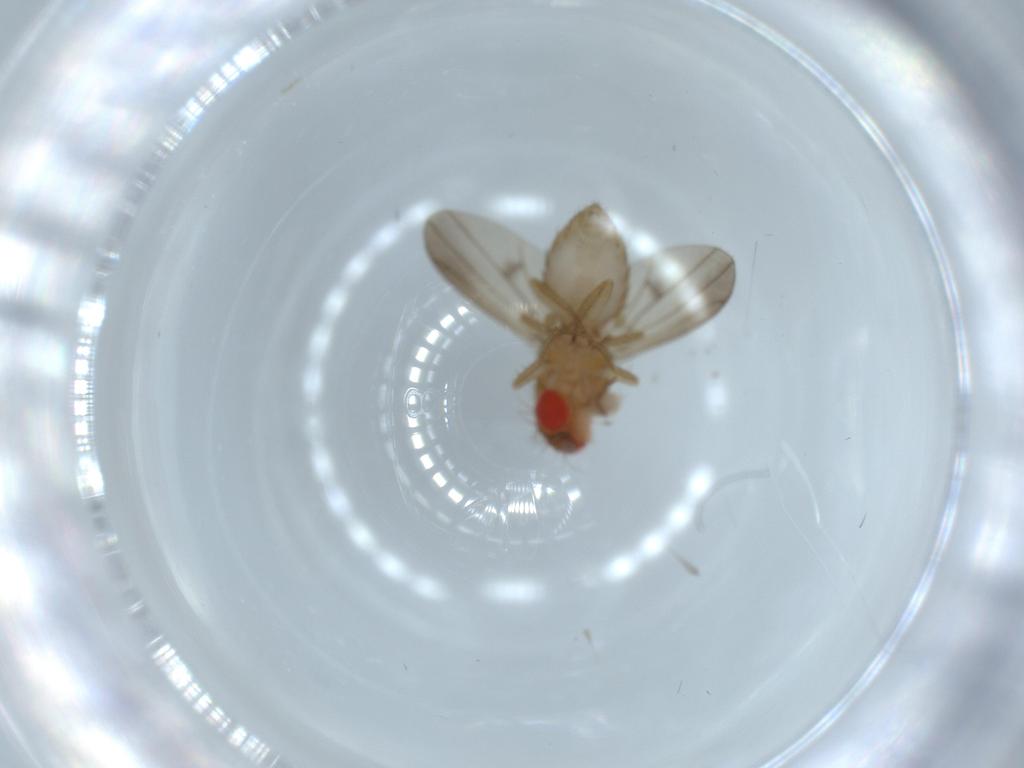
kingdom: Animalia
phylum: Arthropoda
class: Insecta
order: Diptera
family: Drosophilidae
